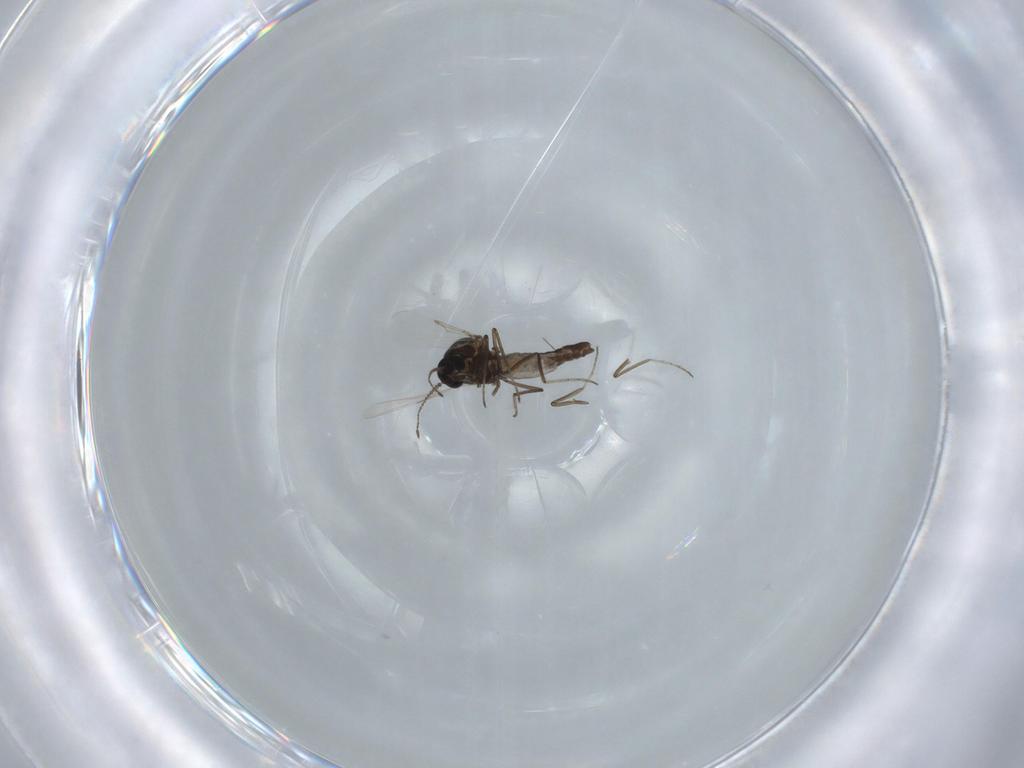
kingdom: Animalia
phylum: Arthropoda
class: Insecta
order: Diptera
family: Ceratopogonidae
